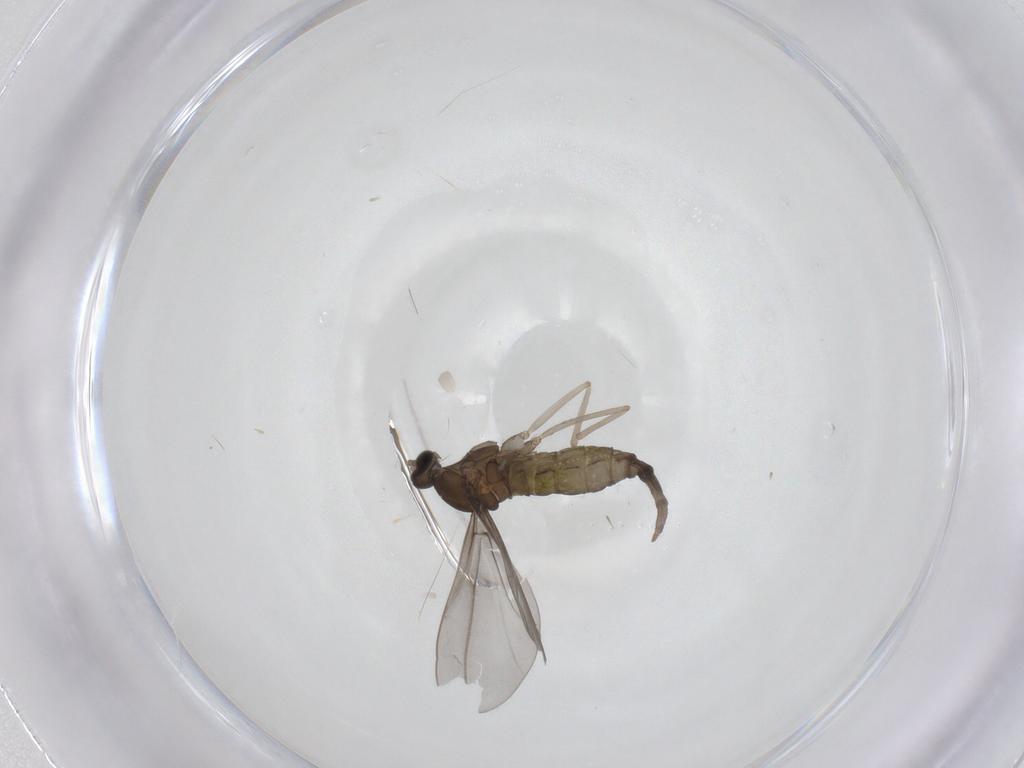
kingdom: Animalia
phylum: Arthropoda
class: Insecta
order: Diptera
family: Cecidomyiidae
